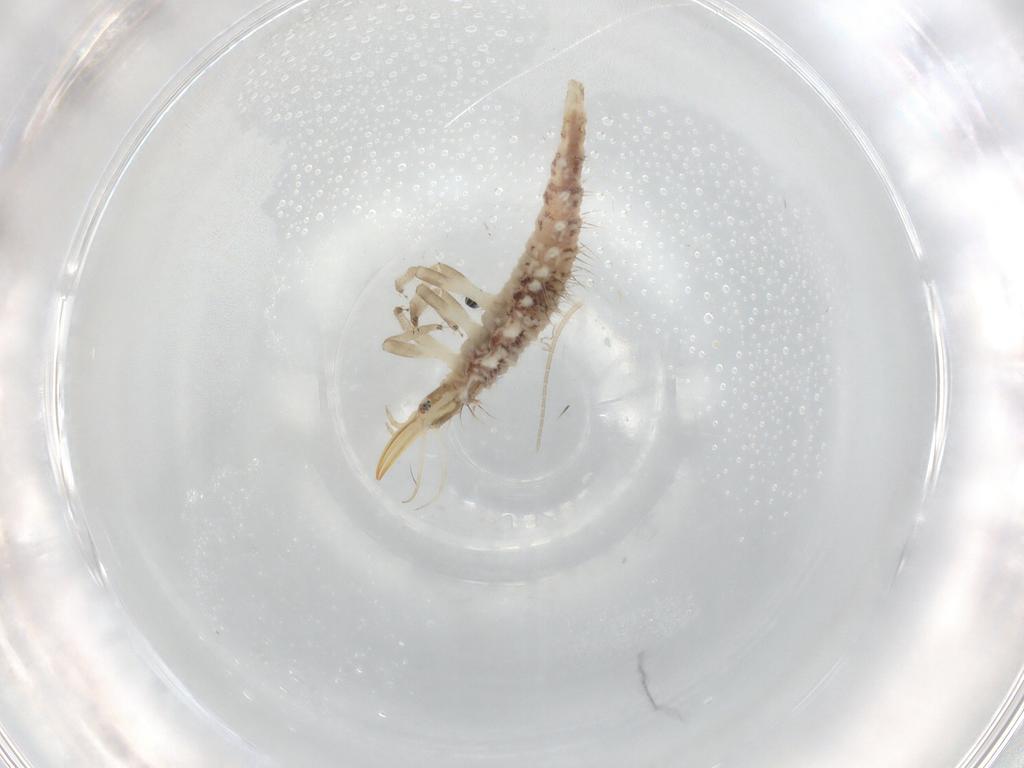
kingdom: Animalia
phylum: Arthropoda
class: Insecta
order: Neuroptera
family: Chrysopidae
